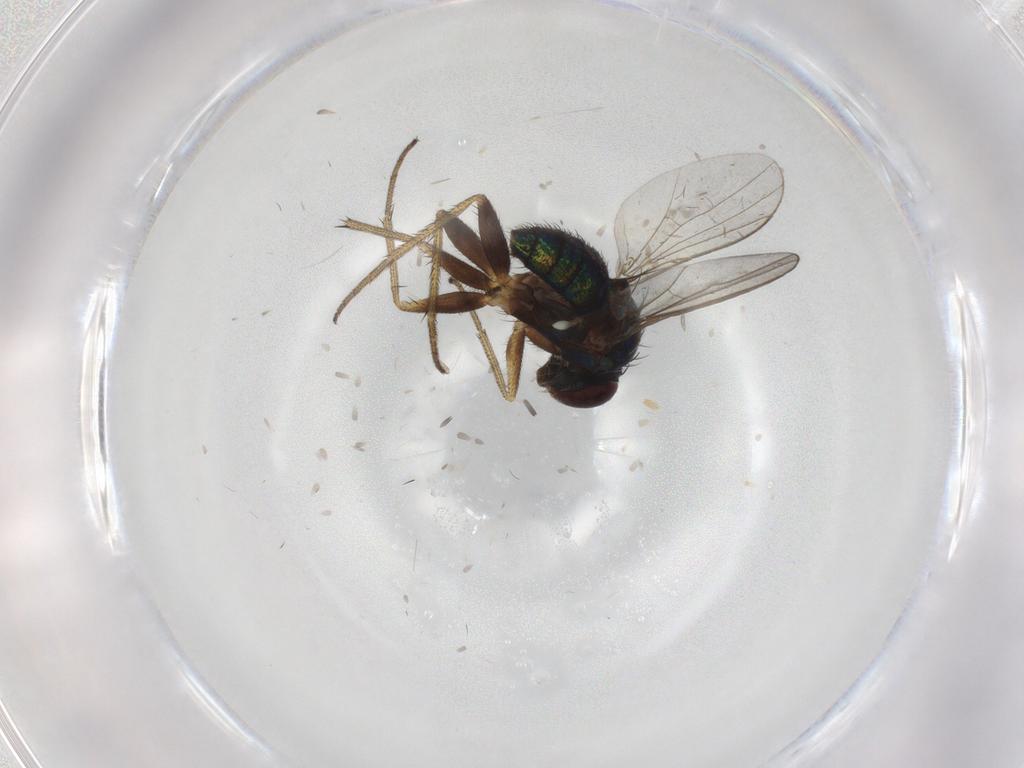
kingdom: Animalia
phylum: Arthropoda
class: Insecta
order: Diptera
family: Dolichopodidae
